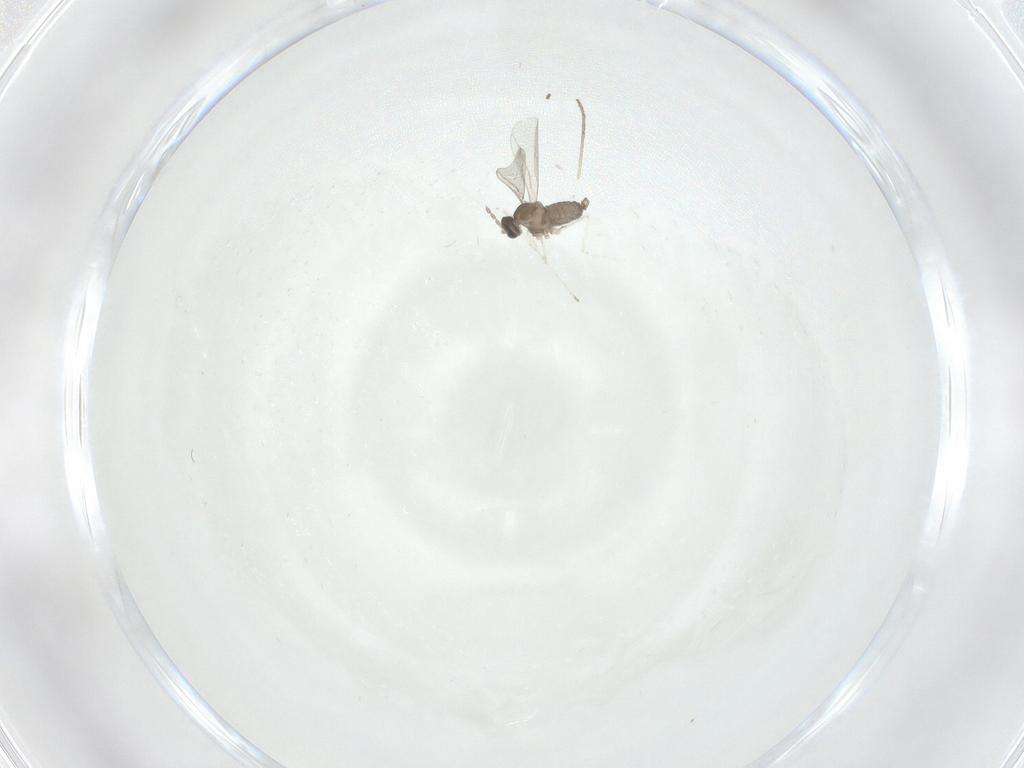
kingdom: Animalia
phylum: Arthropoda
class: Insecta
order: Diptera
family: Cecidomyiidae
